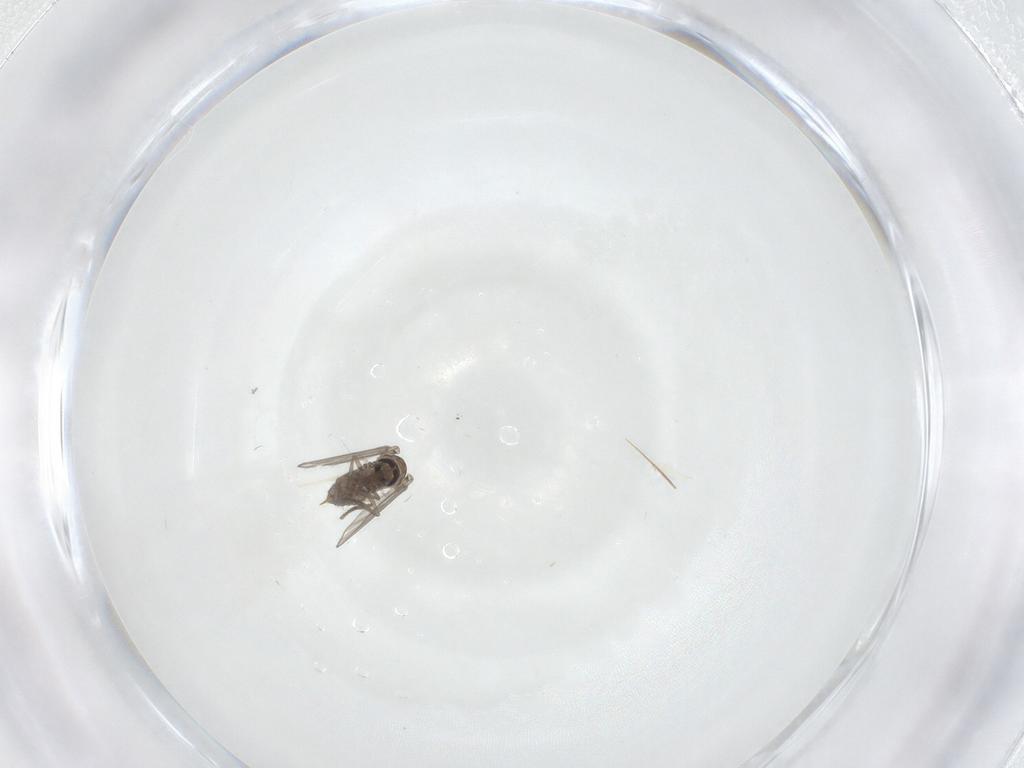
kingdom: Animalia
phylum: Arthropoda
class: Insecta
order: Diptera
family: Psychodidae
